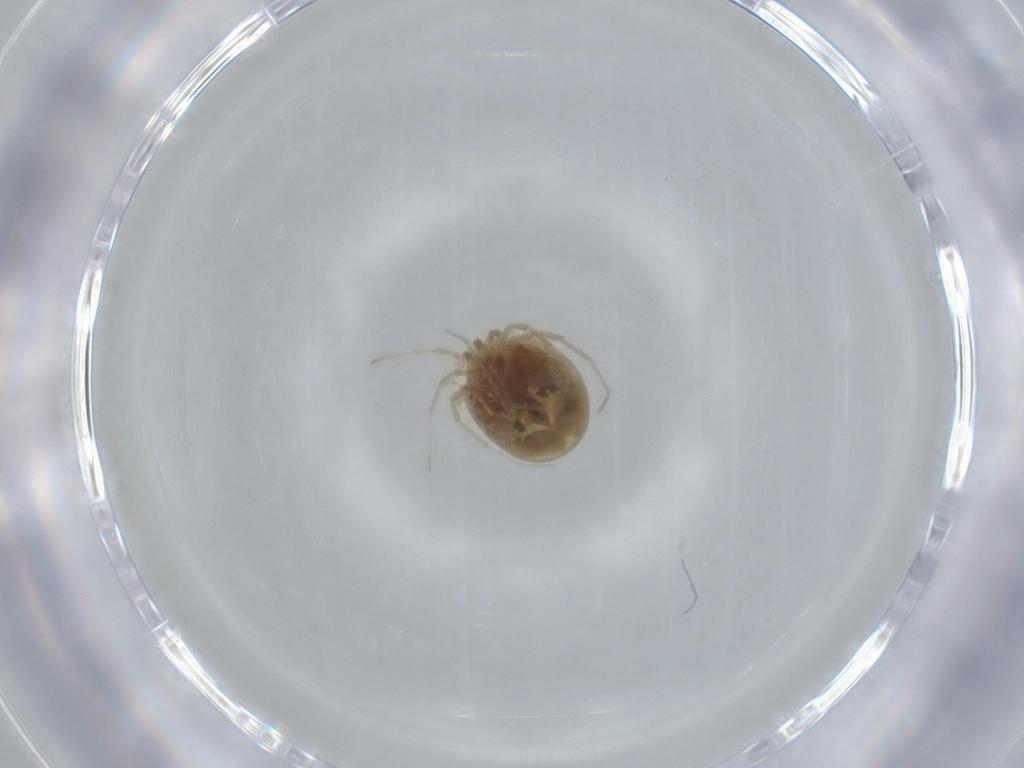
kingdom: Animalia
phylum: Arthropoda
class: Arachnida
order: Trombidiformes
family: Hygrobatidae
